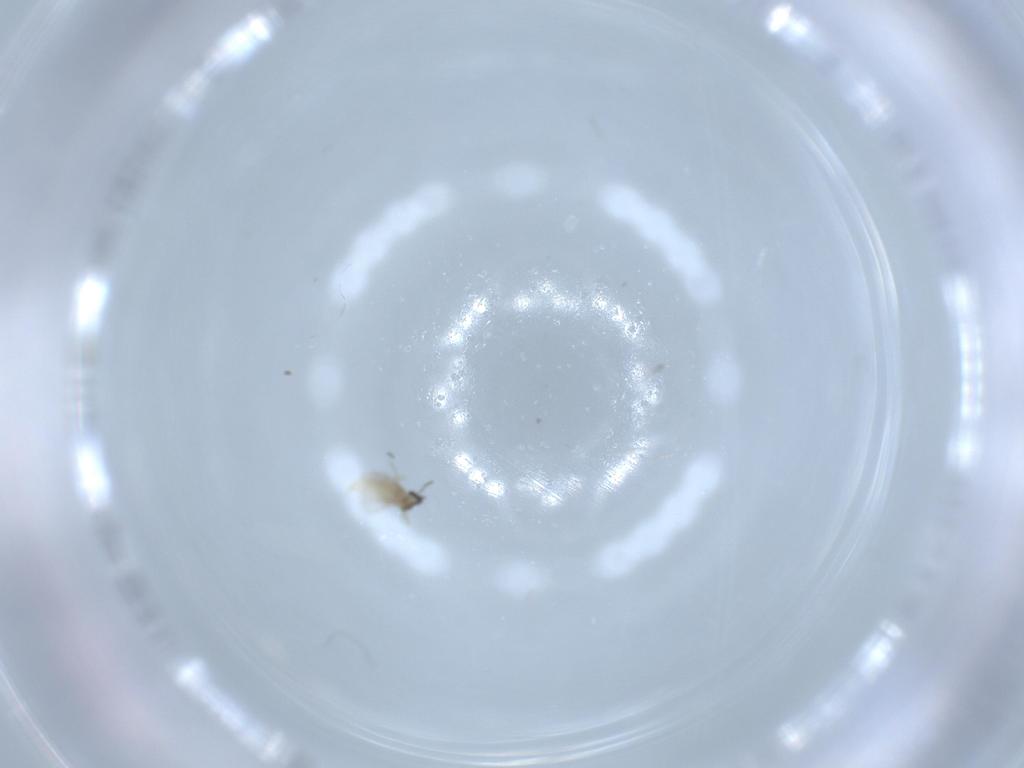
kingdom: Animalia
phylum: Arthropoda
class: Insecta
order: Diptera
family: Cecidomyiidae
